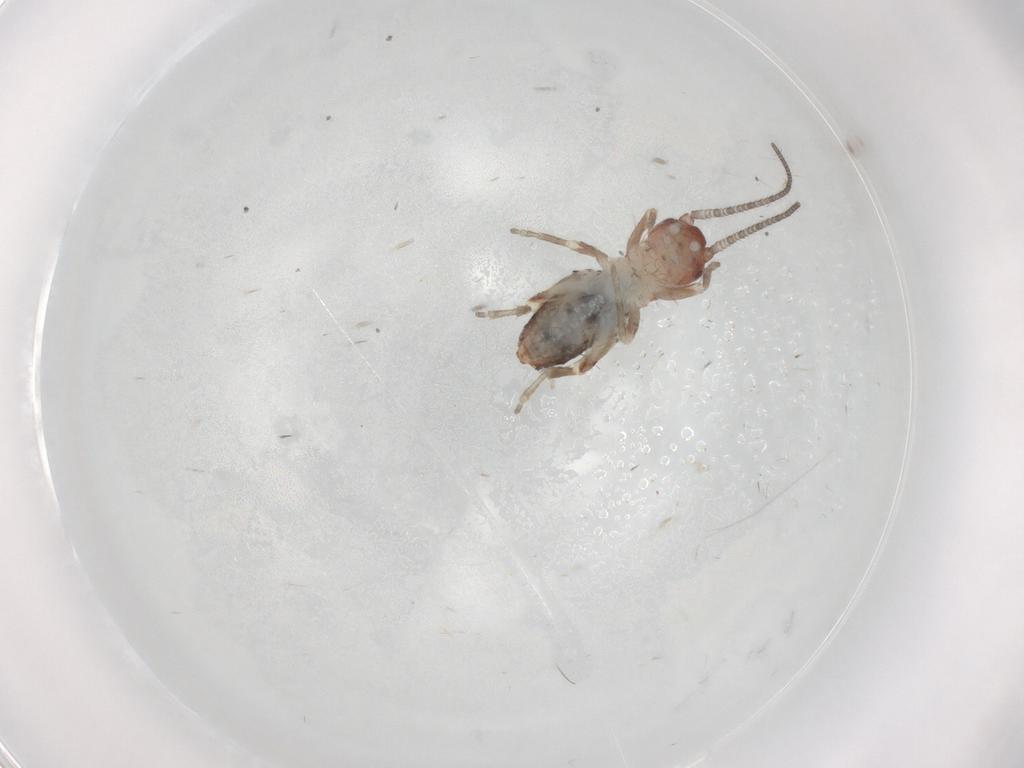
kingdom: Animalia
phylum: Arthropoda
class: Insecta
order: Orthoptera
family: Mogoplistidae
